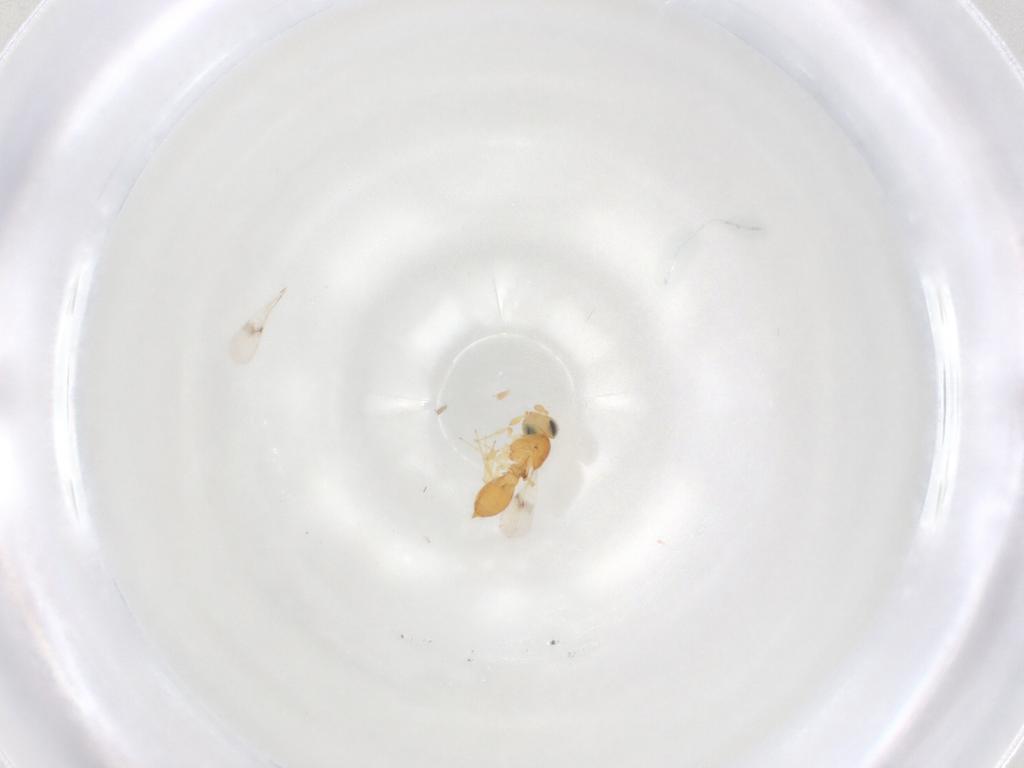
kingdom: Animalia
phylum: Arthropoda
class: Insecta
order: Hymenoptera
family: Scelionidae
